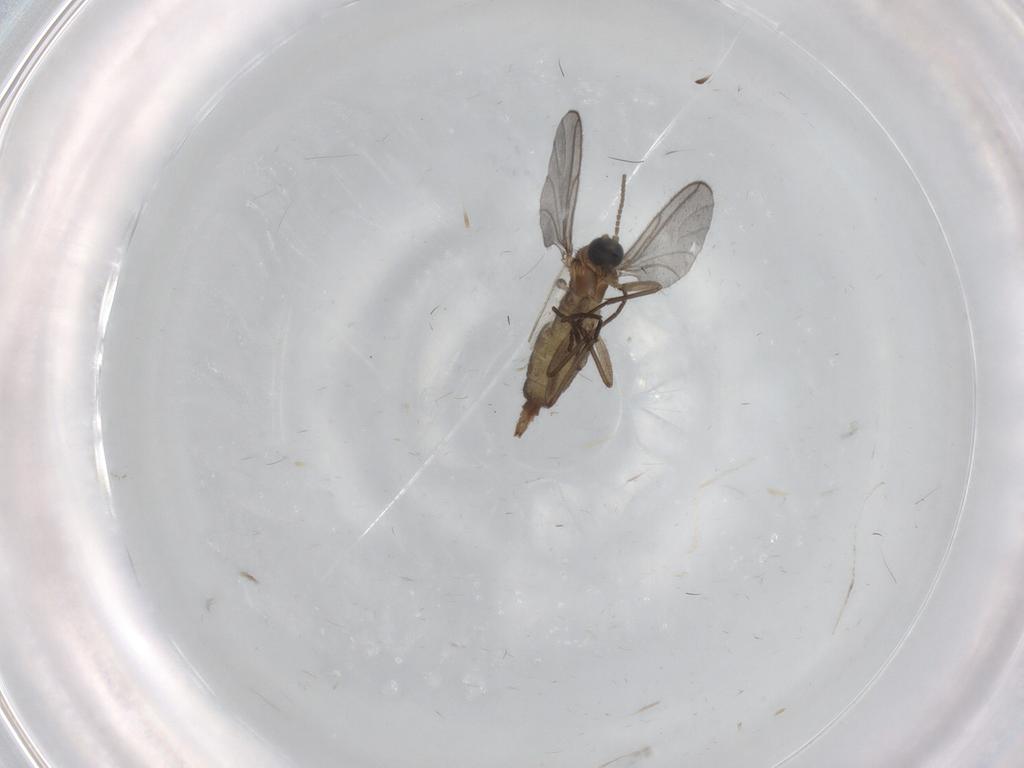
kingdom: Animalia
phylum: Arthropoda
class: Insecta
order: Diptera
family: Sciaridae
